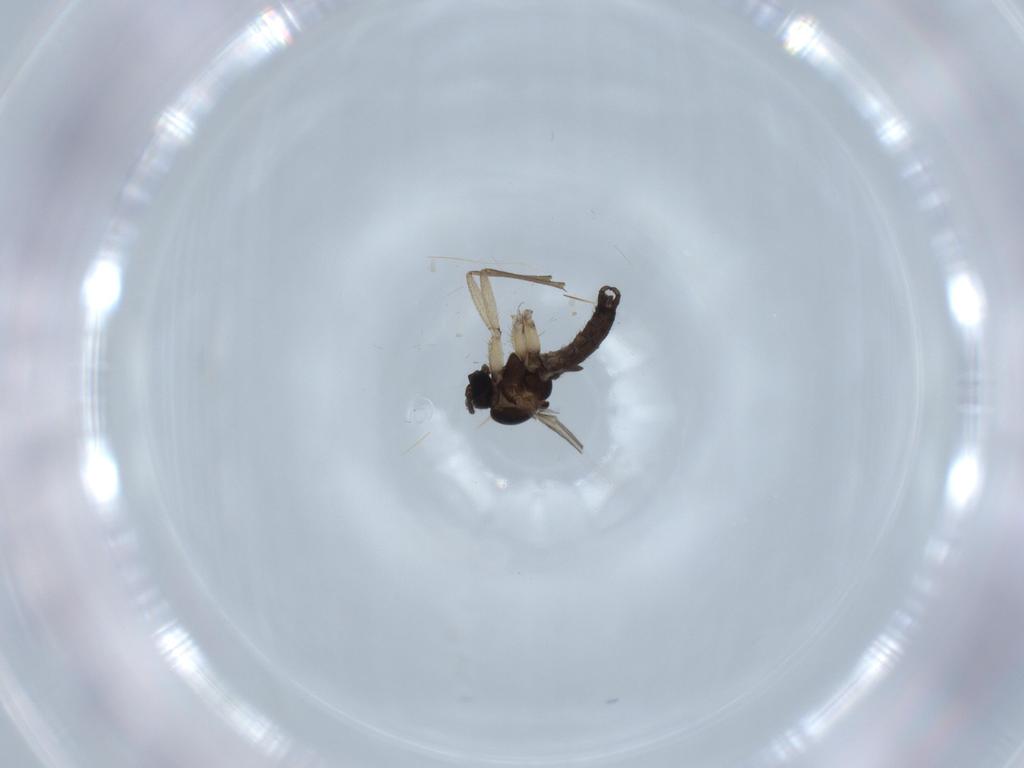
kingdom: Animalia
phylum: Arthropoda
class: Insecta
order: Diptera
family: Sciaridae
